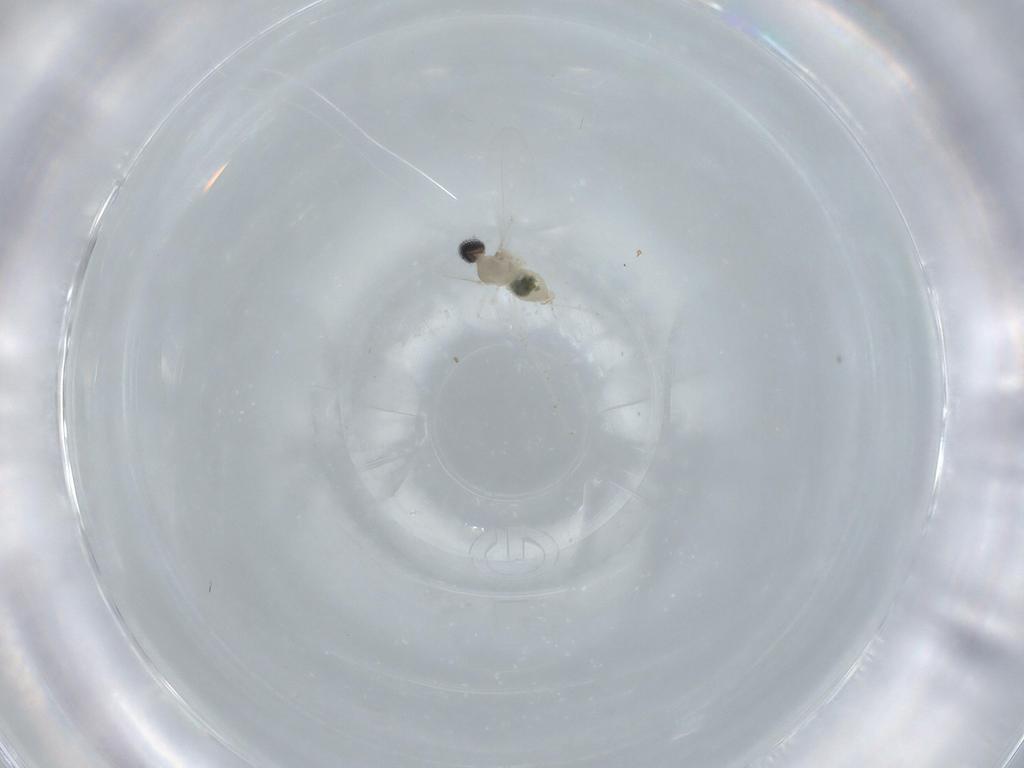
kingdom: Animalia
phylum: Arthropoda
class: Insecta
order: Diptera
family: Cecidomyiidae
